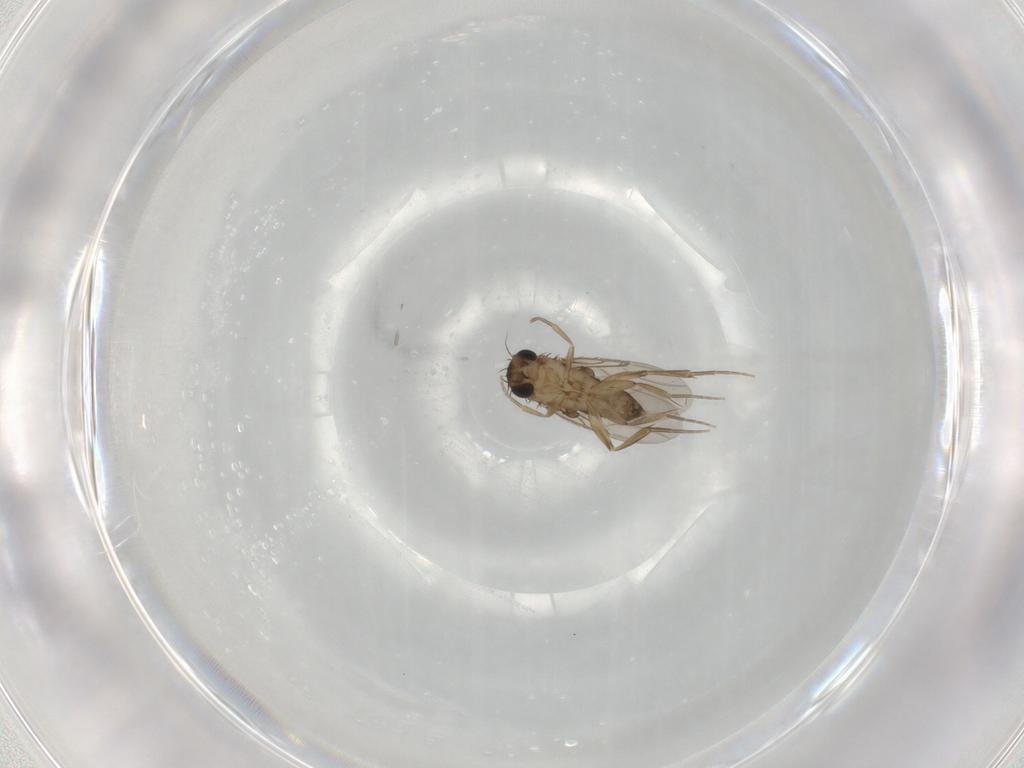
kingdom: Animalia
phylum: Arthropoda
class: Insecta
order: Diptera
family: Phoridae
